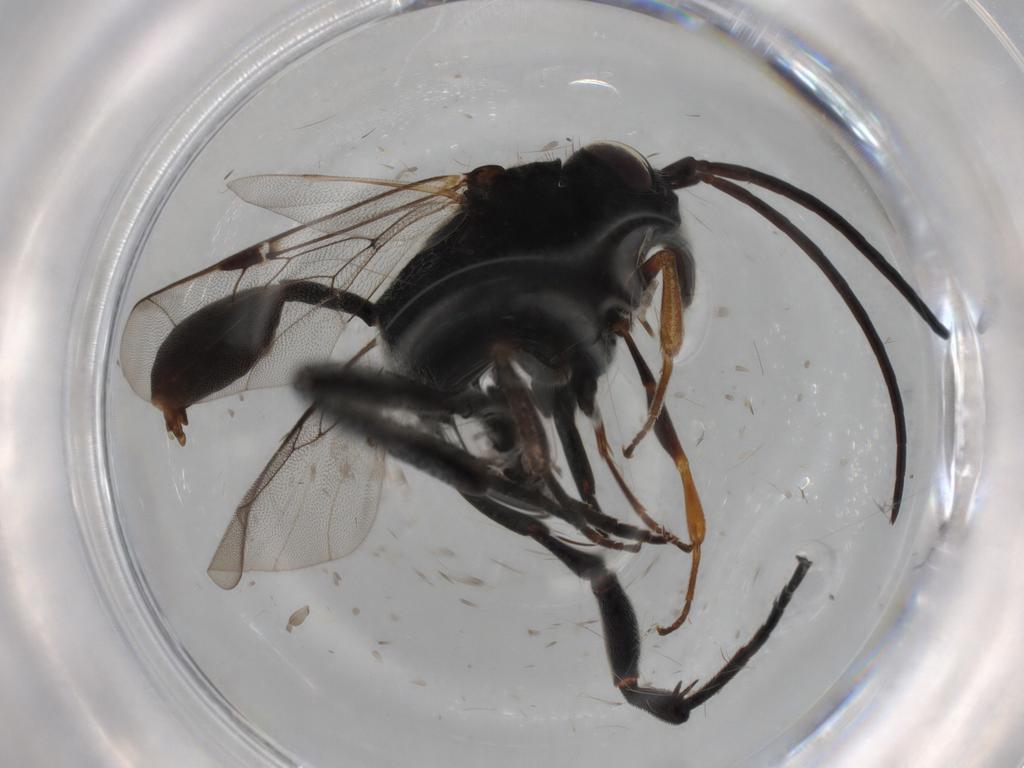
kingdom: Animalia
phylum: Arthropoda
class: Insecta
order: Hymenoptera
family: Evaniidae
